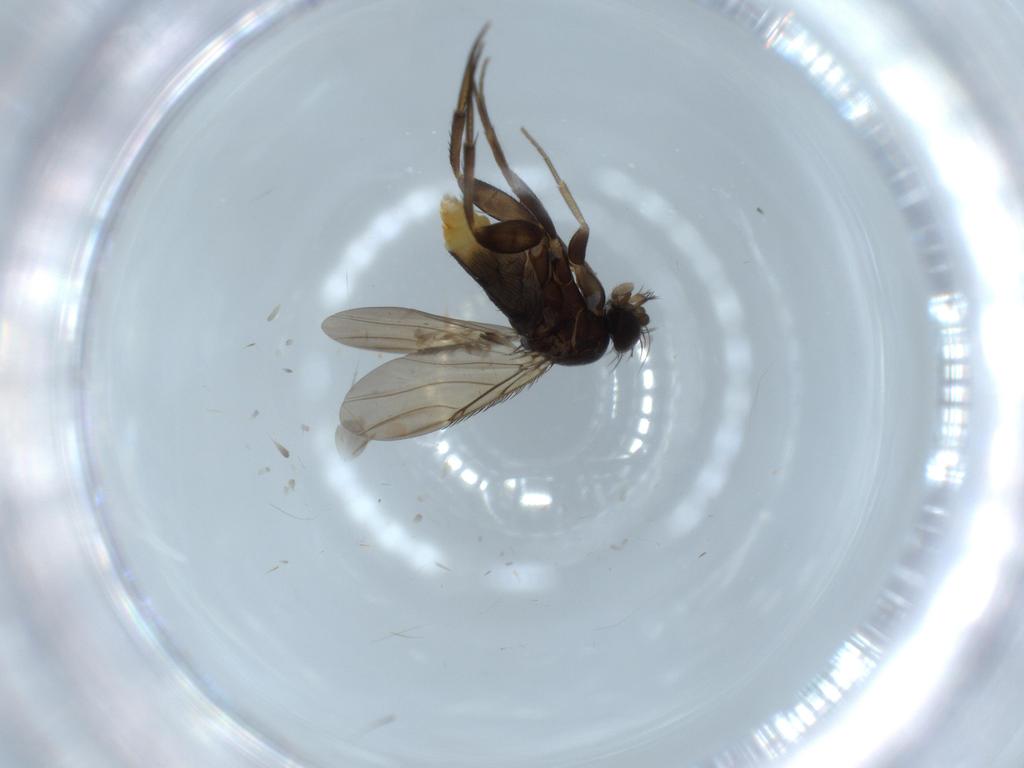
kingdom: Animalia
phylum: Arthropoda
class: Insecta
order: Diptera
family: Phoridae
